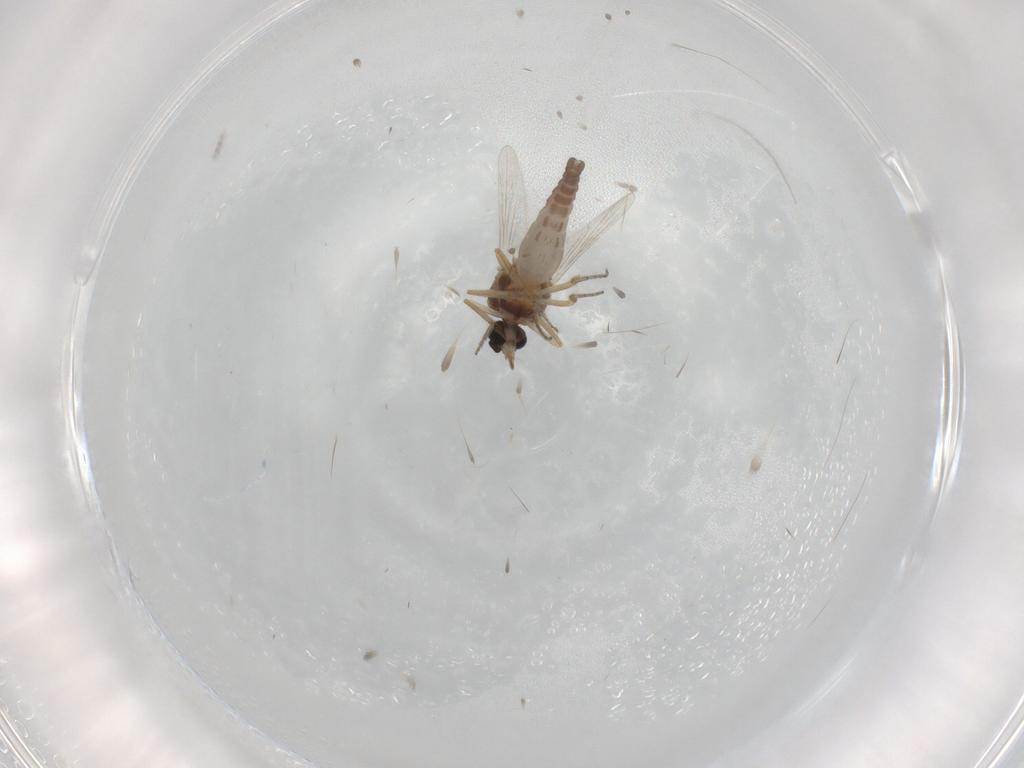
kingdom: Animalia
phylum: Arthropoda
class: Insecta
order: Diptera
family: Ceratopogonidae
